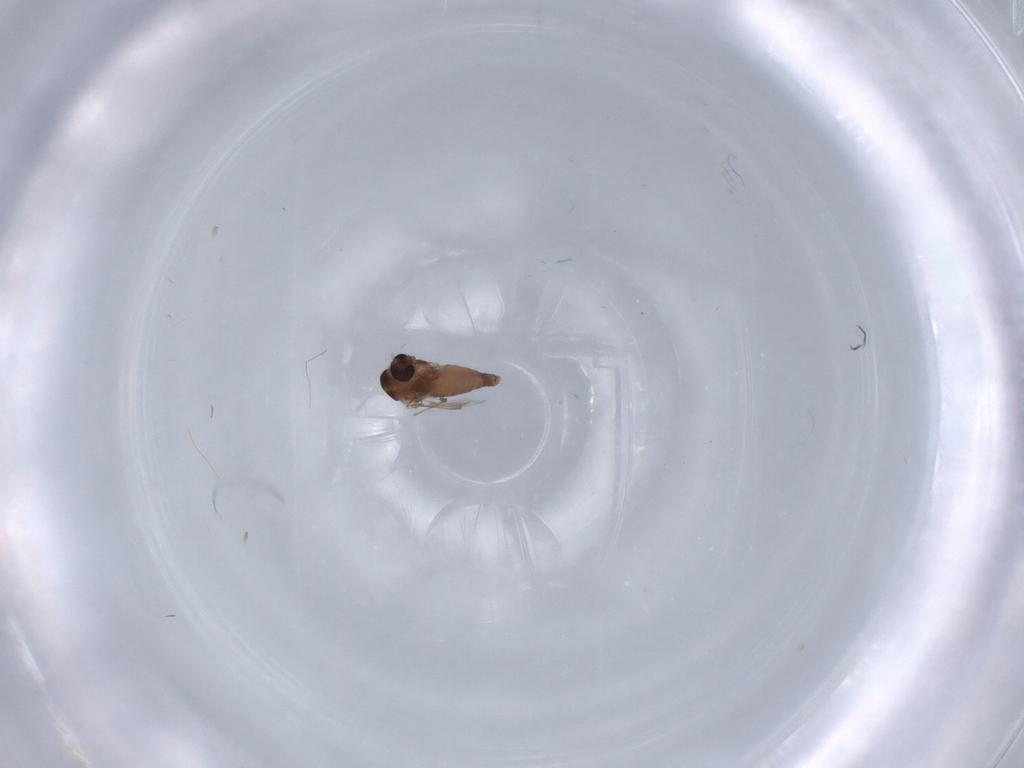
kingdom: Animalia
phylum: Arthropoda
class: Insecta
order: Diptera
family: Chironomidae
